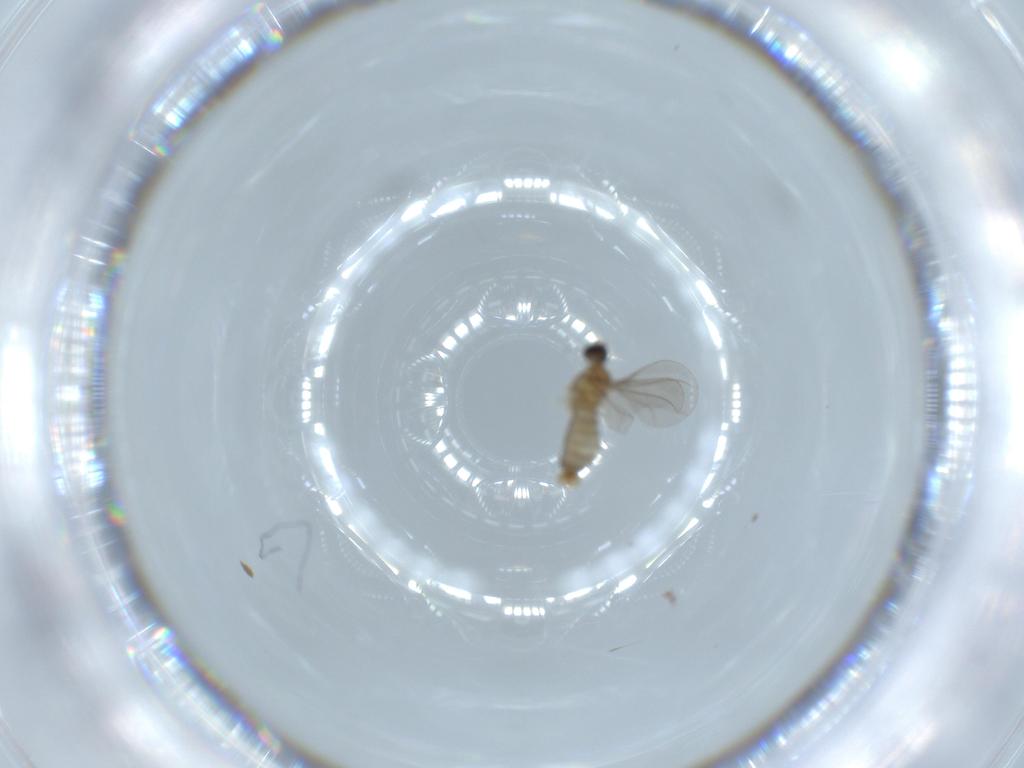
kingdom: Animalia
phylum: Arthropoda
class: Insecta
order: Diptera
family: Cecidomyiidae
